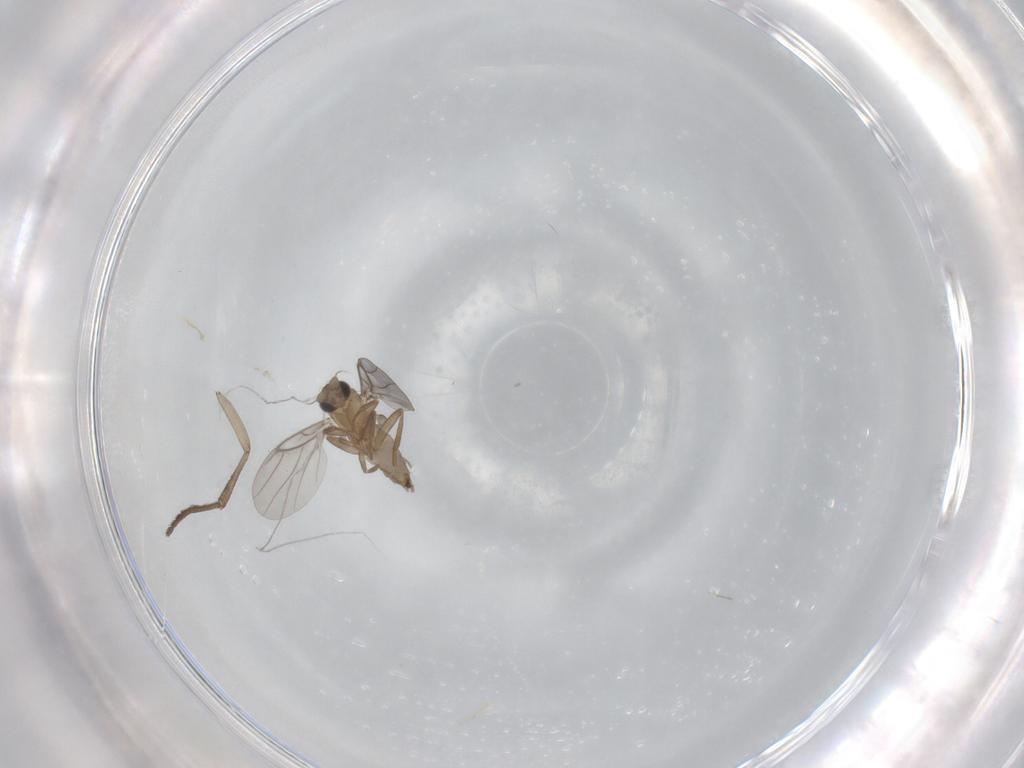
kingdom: Animalia
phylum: Arthropoda
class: Insecta
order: Diptera
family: Psychodidae
